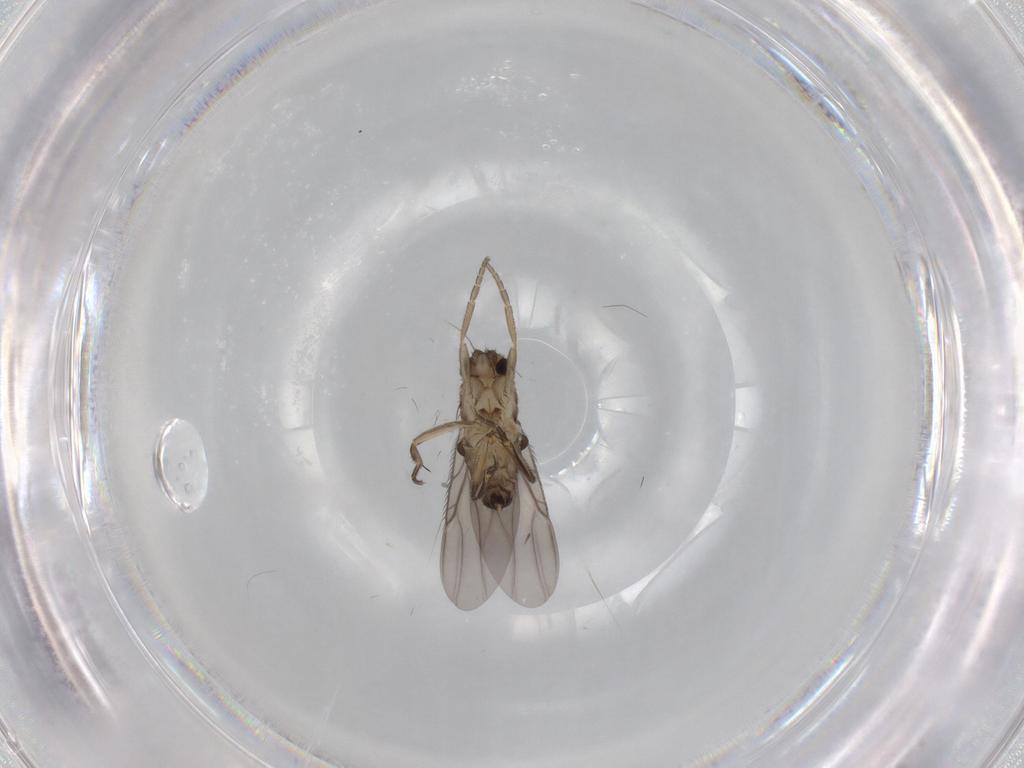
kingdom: Animalia
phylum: Arthropoda
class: Insecta
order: Diptera
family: Phoridae
